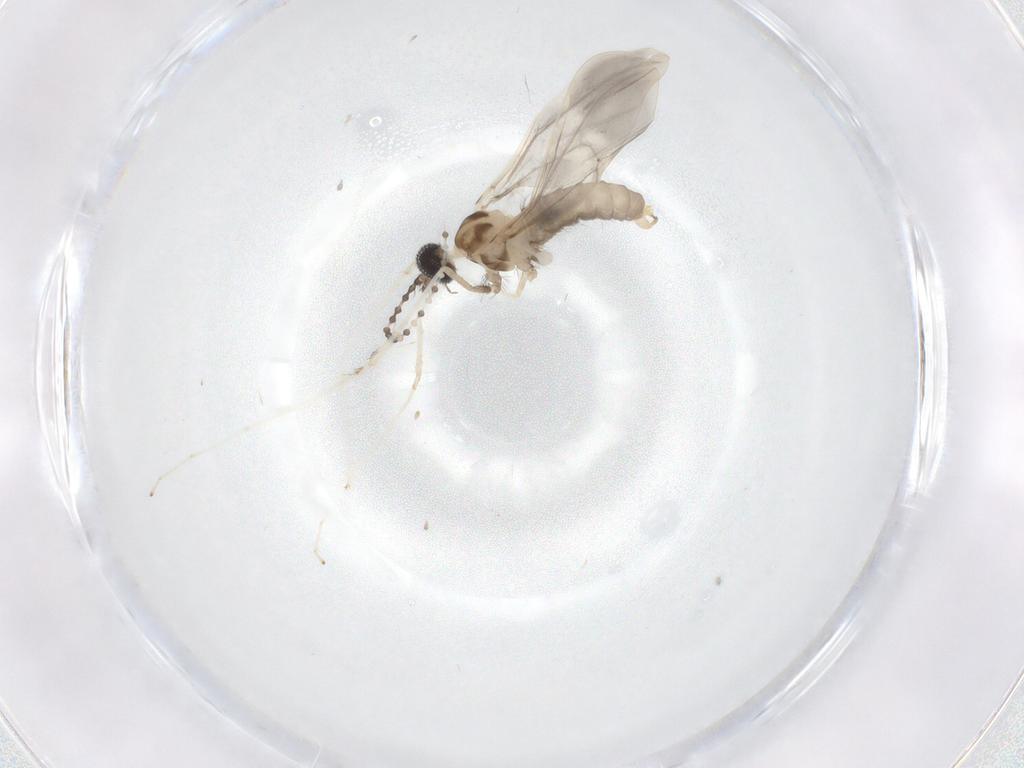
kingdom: Animalia
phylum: Arthropoda
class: Insecta
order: Diptera
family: Cecidomyiidae
